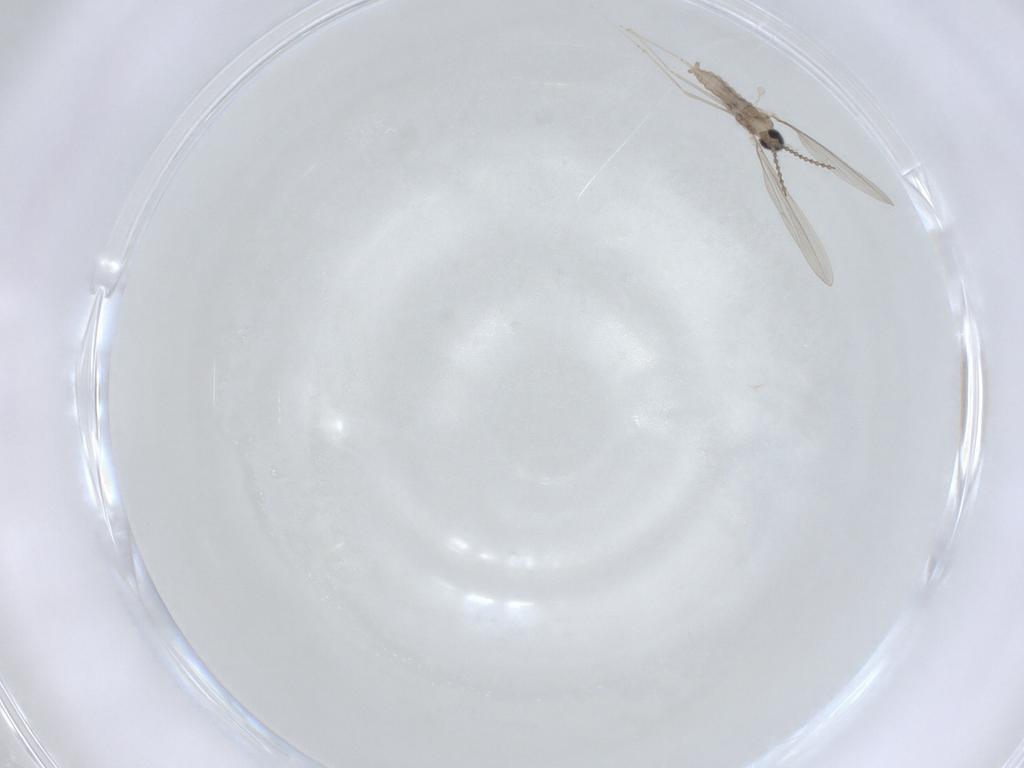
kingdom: Animalia
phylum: Arthropoda
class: Insecta
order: Diptera
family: Cecidomyiidae
